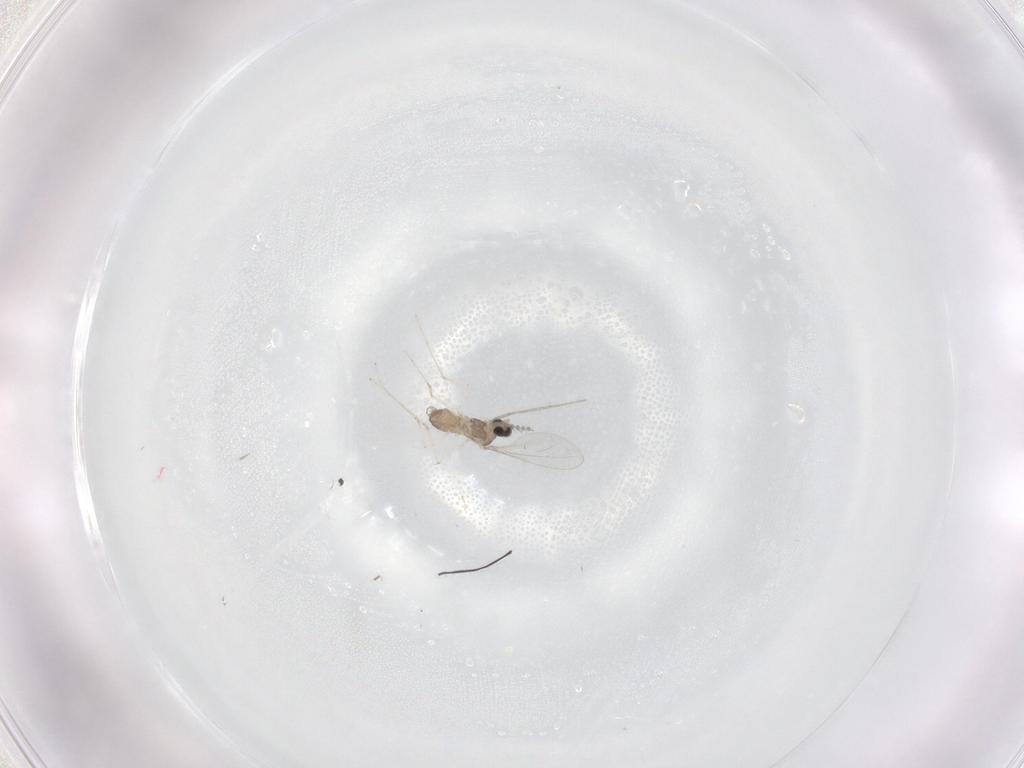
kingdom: Animalia
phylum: Arthropoda
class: Insecta
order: Diptera
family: Cecidomyiidae
